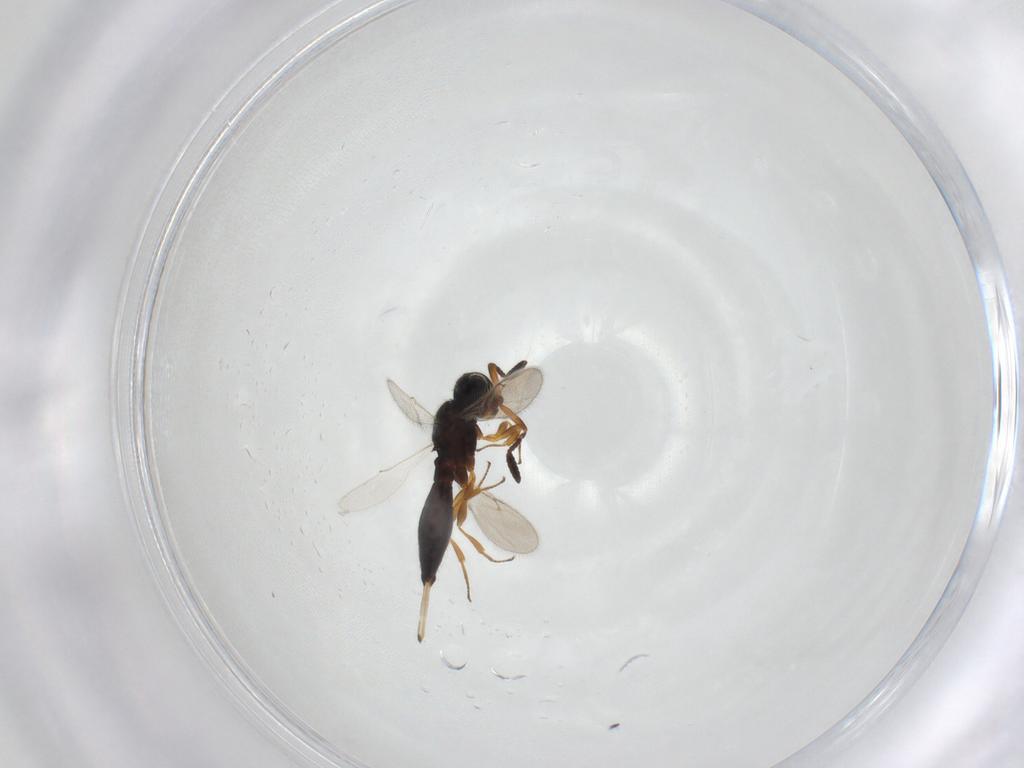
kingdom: Animalia
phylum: Arthropoda
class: Insecta
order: Hymenoptera
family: Scelionidae
